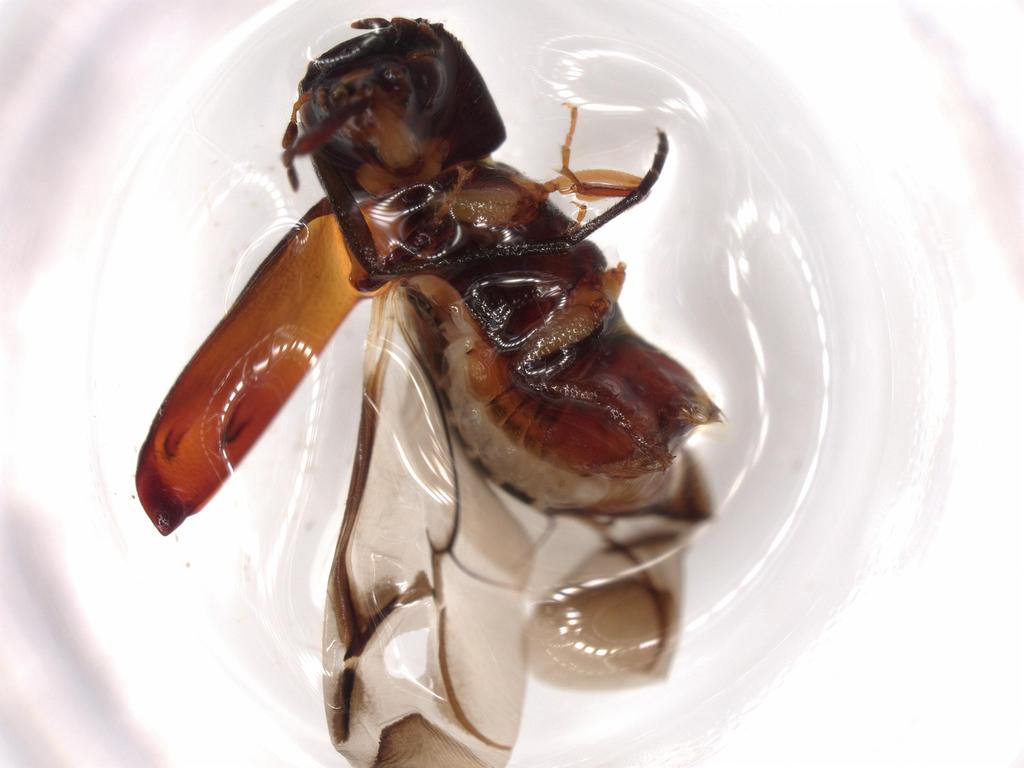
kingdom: Animalia
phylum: Arthropoda
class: Insecta
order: Coleoptera
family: Bostrichidae
